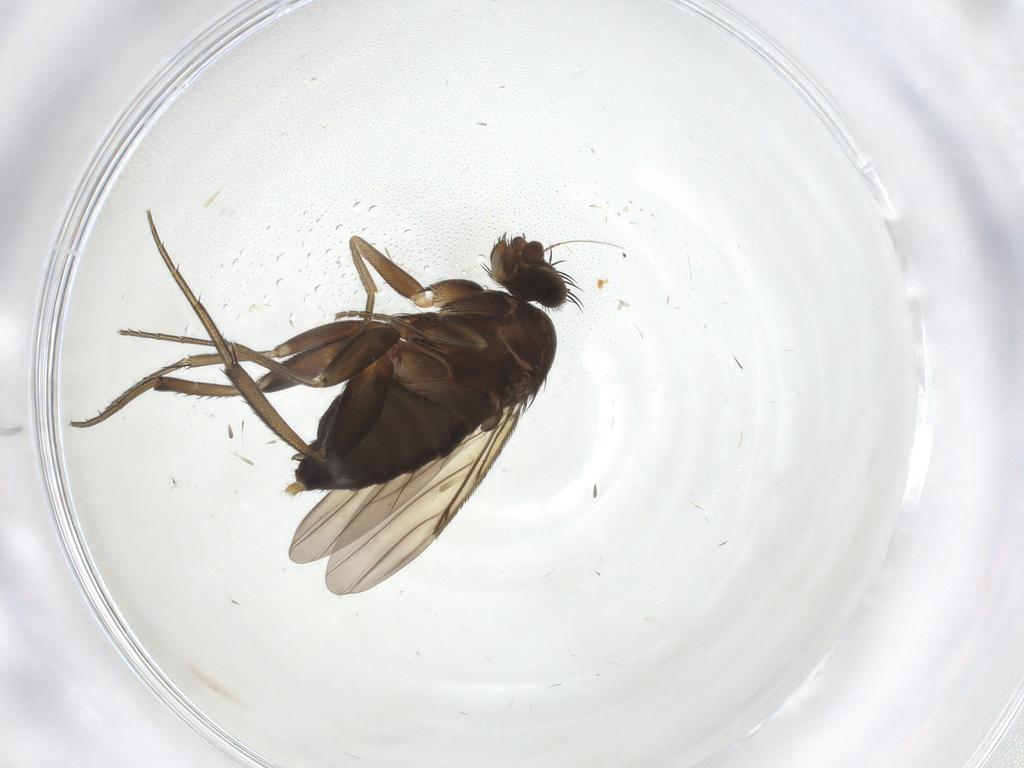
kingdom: Animalia
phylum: Arthropoda
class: Insecta
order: Diptera
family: Phoridae
